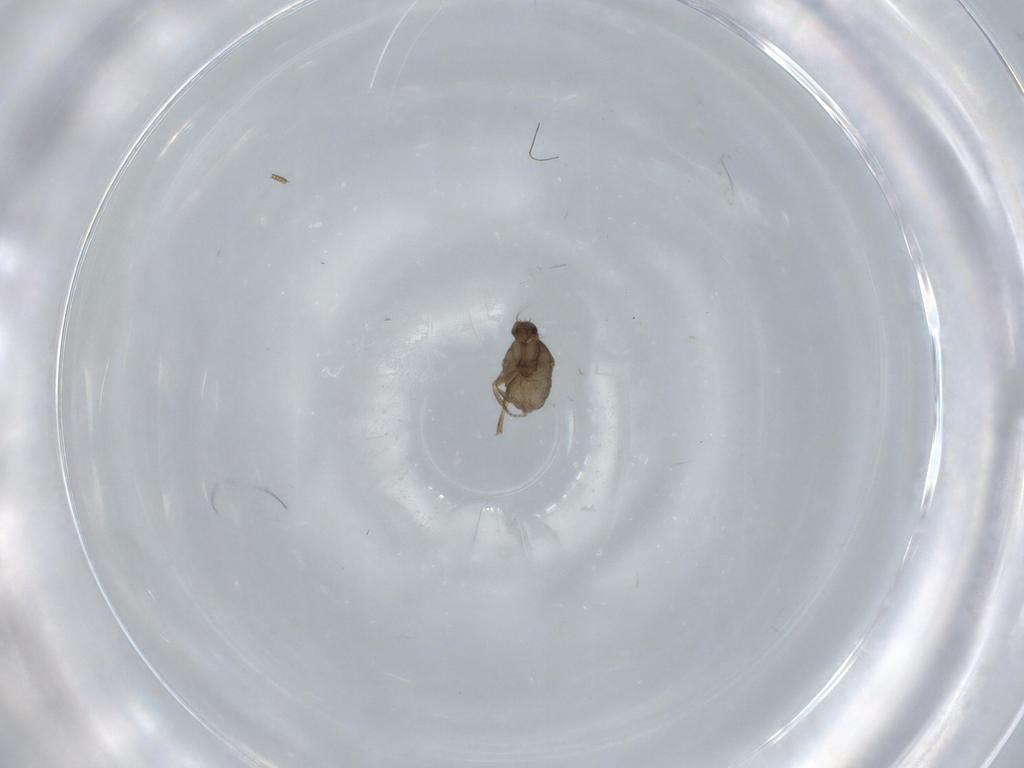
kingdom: Animalia
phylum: Arthropoda
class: Insecta
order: Diptera
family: Phoridae
